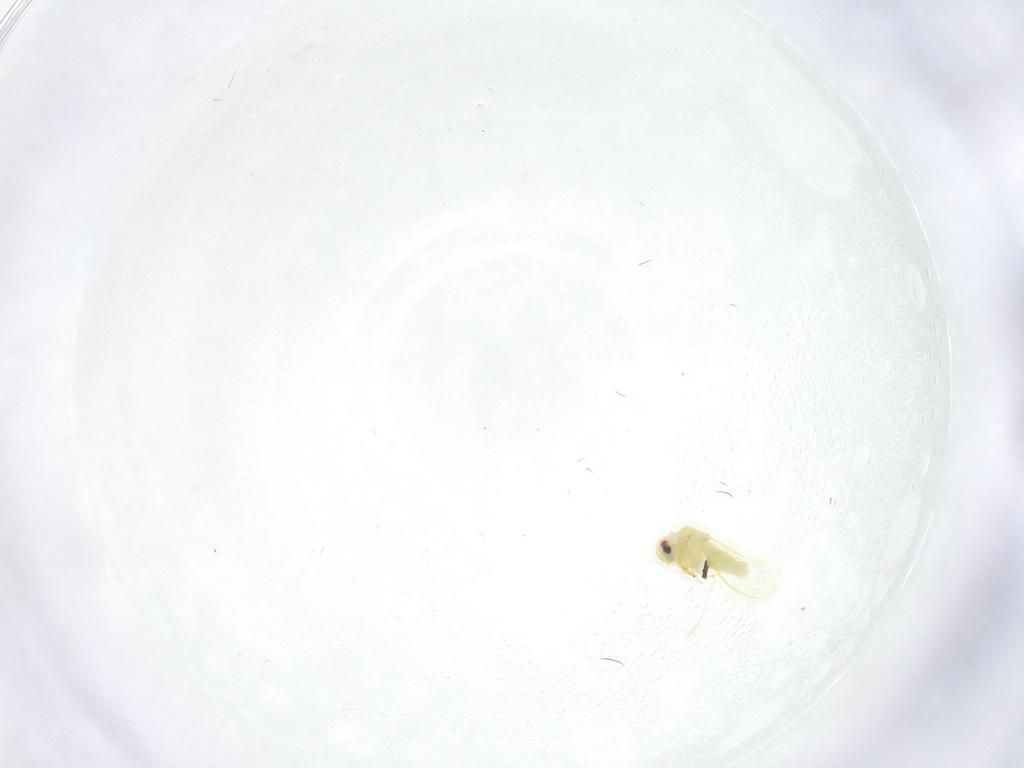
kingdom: Animalia
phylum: Arthropoda
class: Insecta
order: Hemiptera
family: Aleyrodidae
